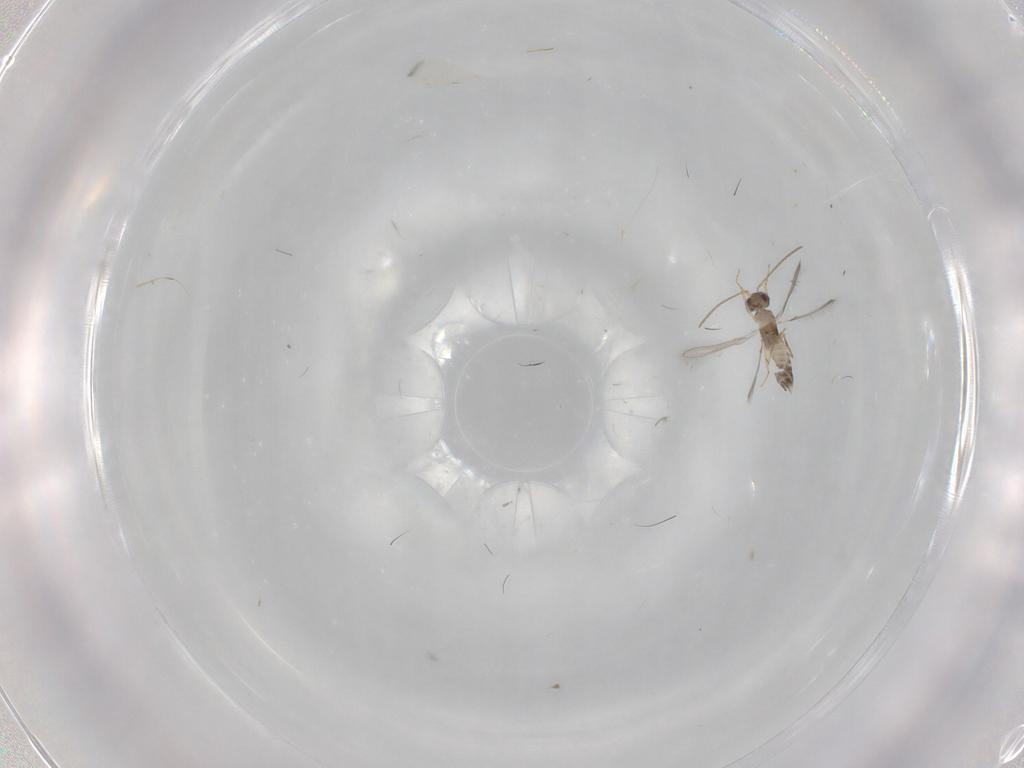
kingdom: Animalia
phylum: Arthropoda
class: Insecta
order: Hymenoptera
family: Mymaridae
